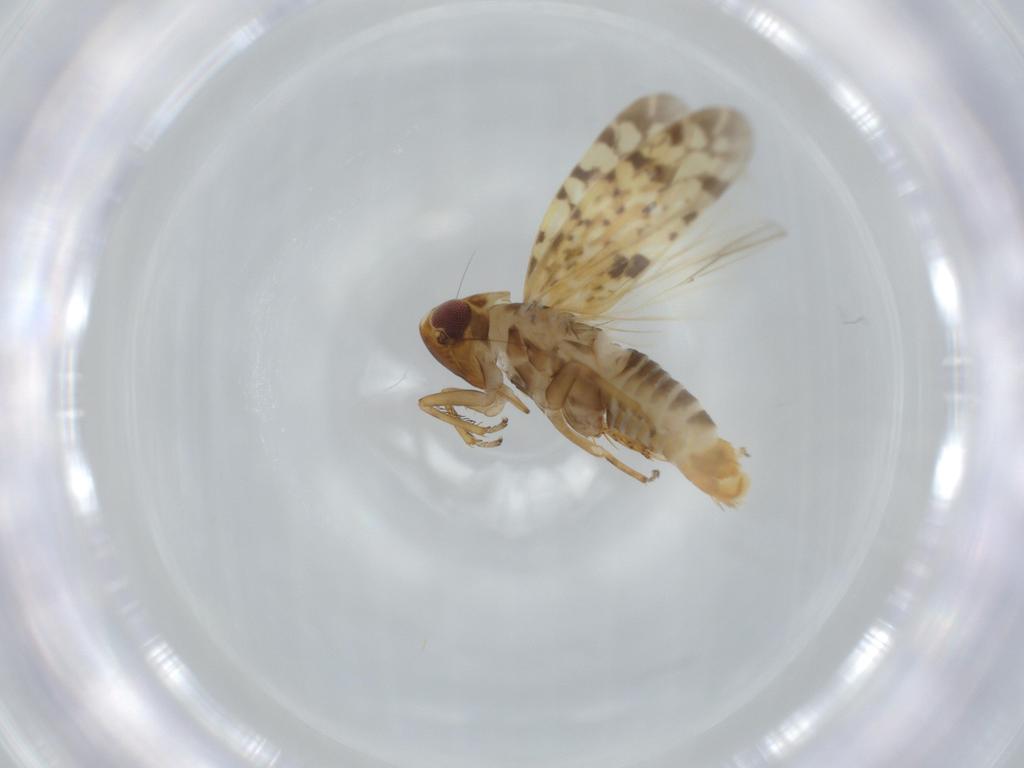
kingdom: Animalia
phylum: Arthropoda
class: Insecta
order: Hemiptera
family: Cicadellidae
